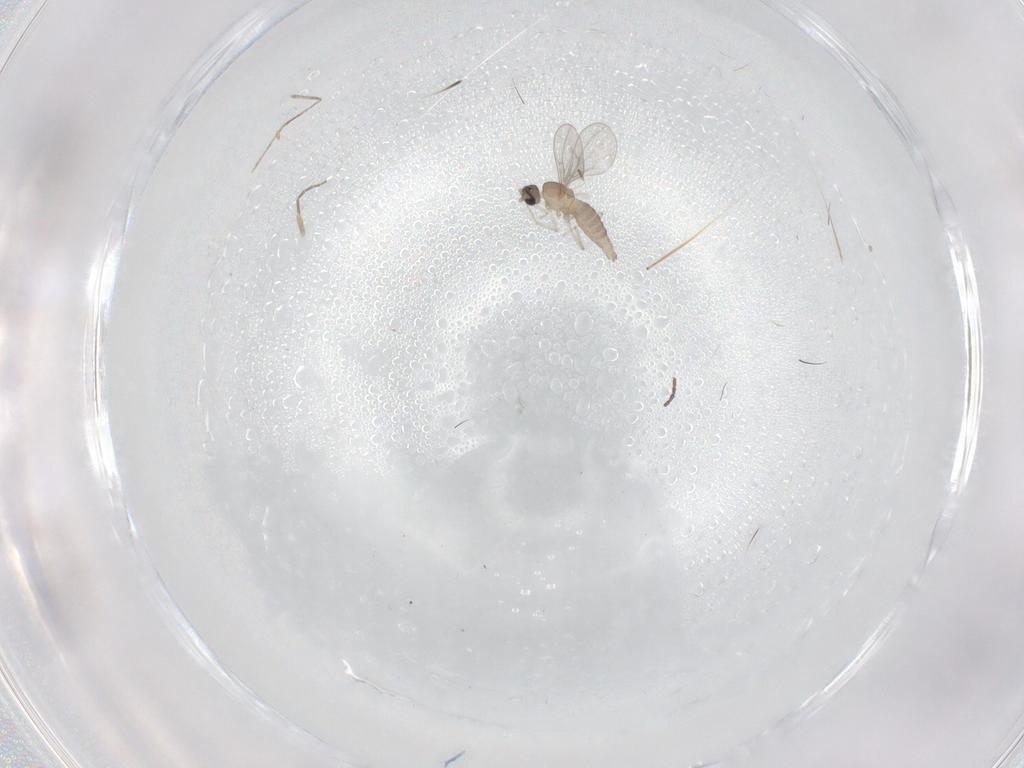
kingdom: Animalia
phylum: Arthropoda
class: Insecta
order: Diptera
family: Cecidomyiidae
